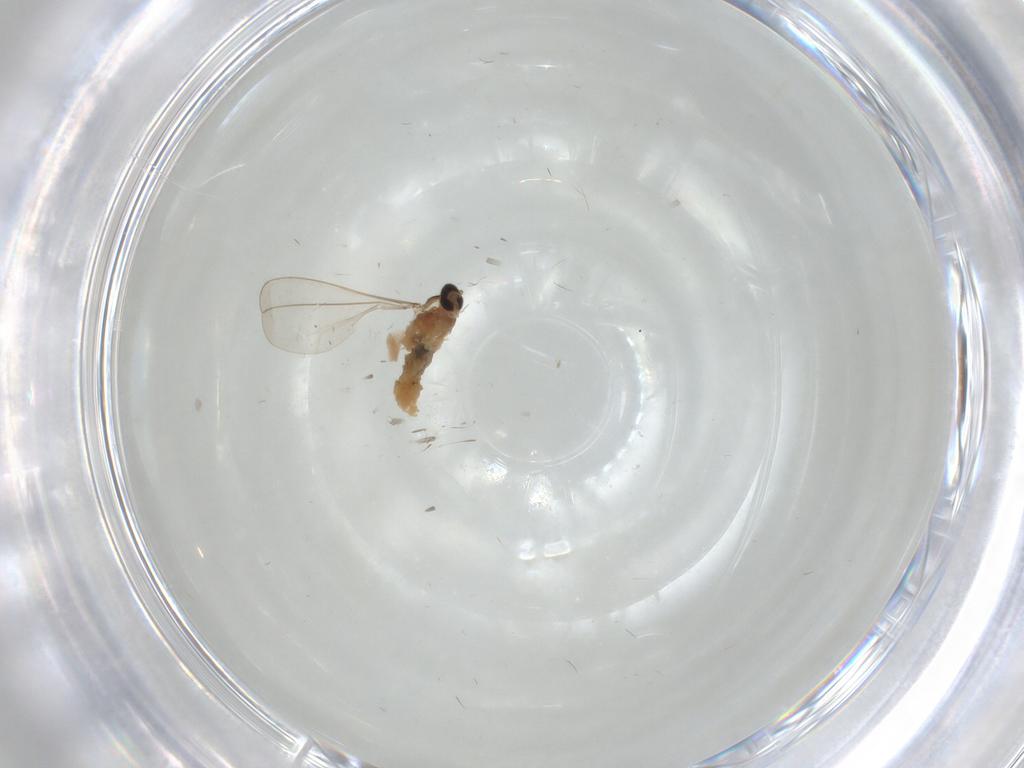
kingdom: Animalia
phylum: Arthropoda
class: Insecta
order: Diptera
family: Cecidomyiidae
